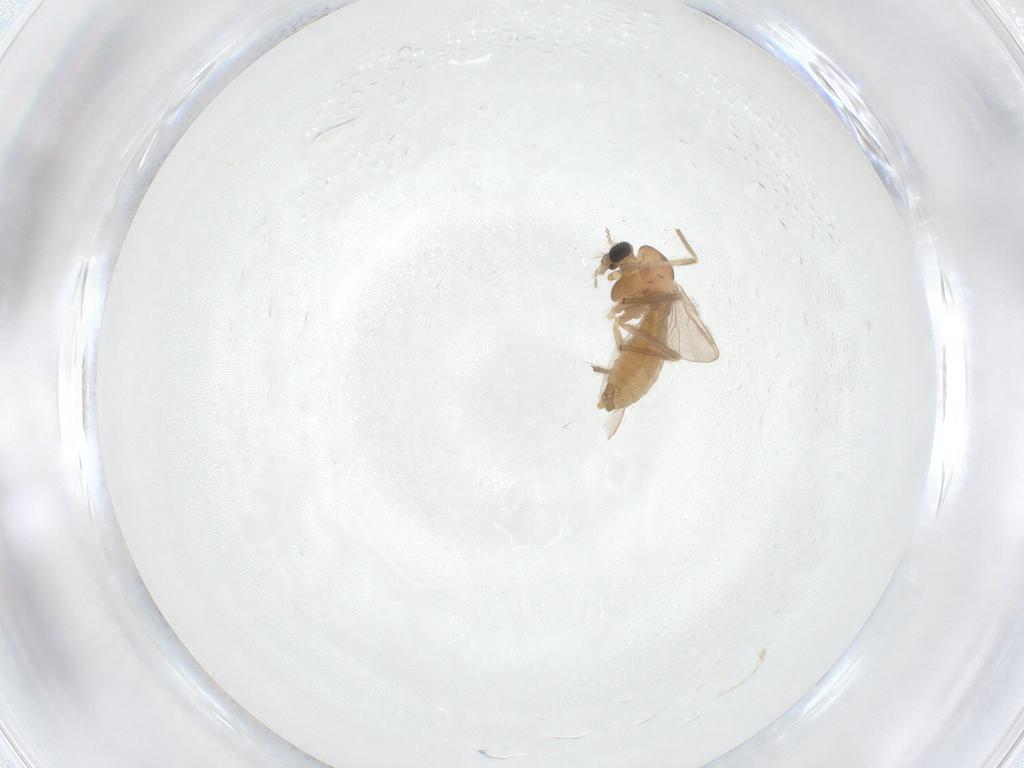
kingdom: Animalia
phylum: Arthropoda
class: Insecta
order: Diptera
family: Chironomidae
